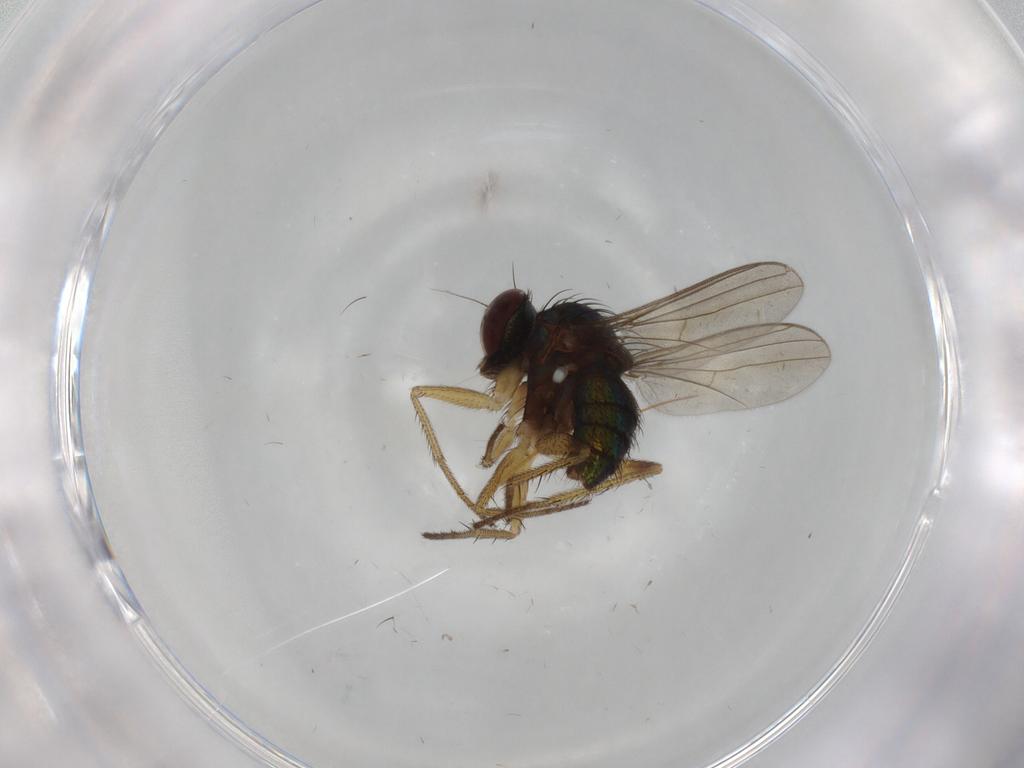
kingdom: Animalia
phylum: Arthropoda
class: Insecta
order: Diptera
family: Dolichopodidae
